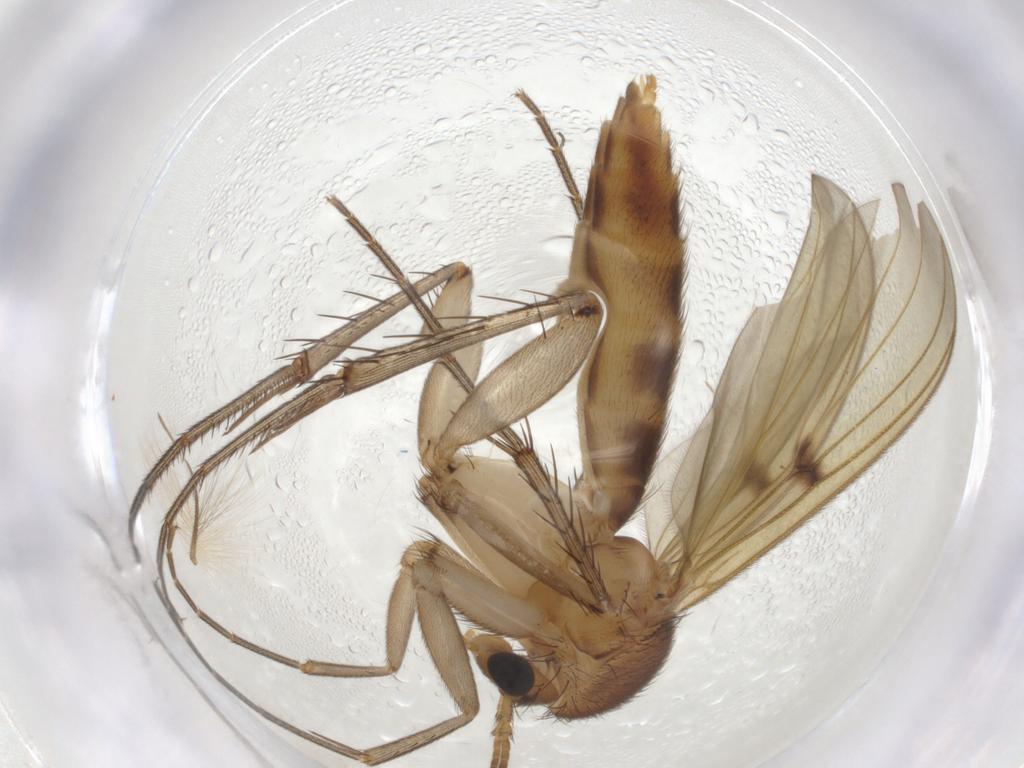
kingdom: Animalia
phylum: Arthropoda
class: Insecta
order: Diptera
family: Mycetophilidae
